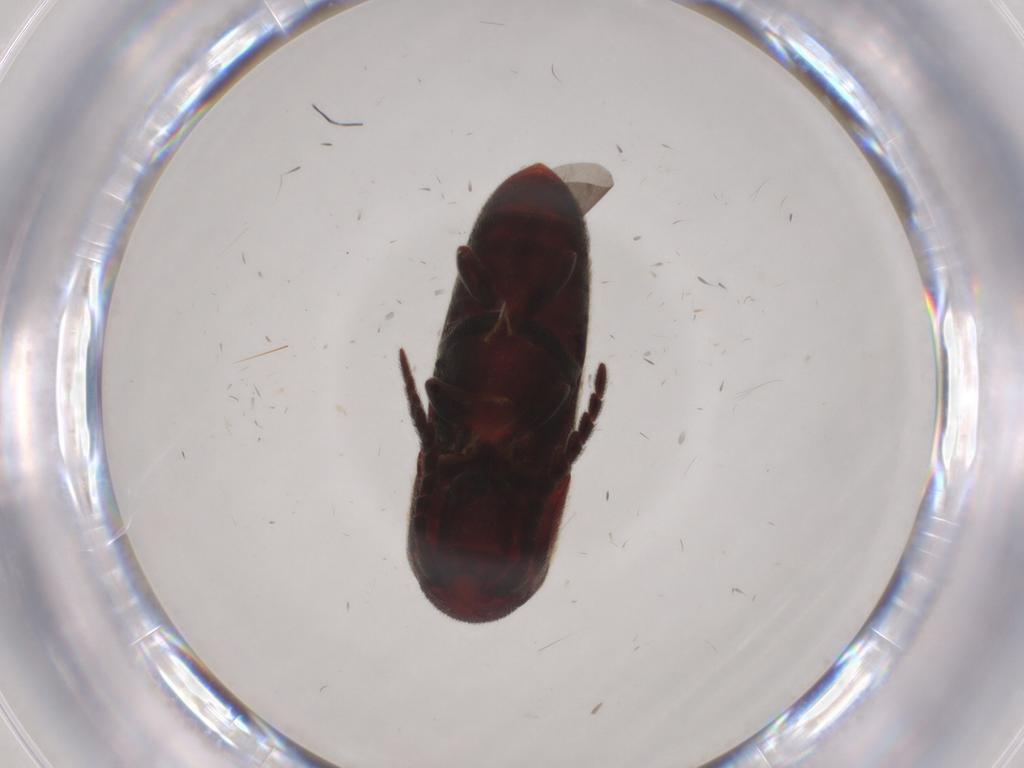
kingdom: Animalia
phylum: Arthropoda
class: Insecta
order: Coleoptera
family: Eucnemidae
